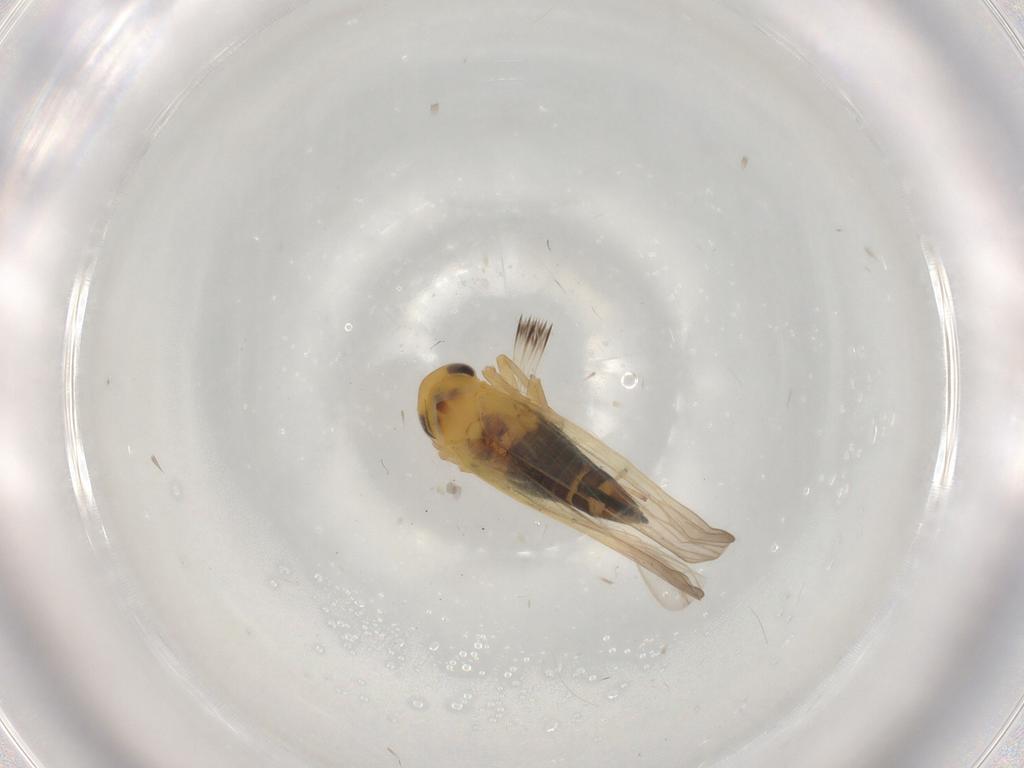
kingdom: Animalia
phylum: Arthropoda
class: Insecta
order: Hemiptera
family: Cicadellidae
